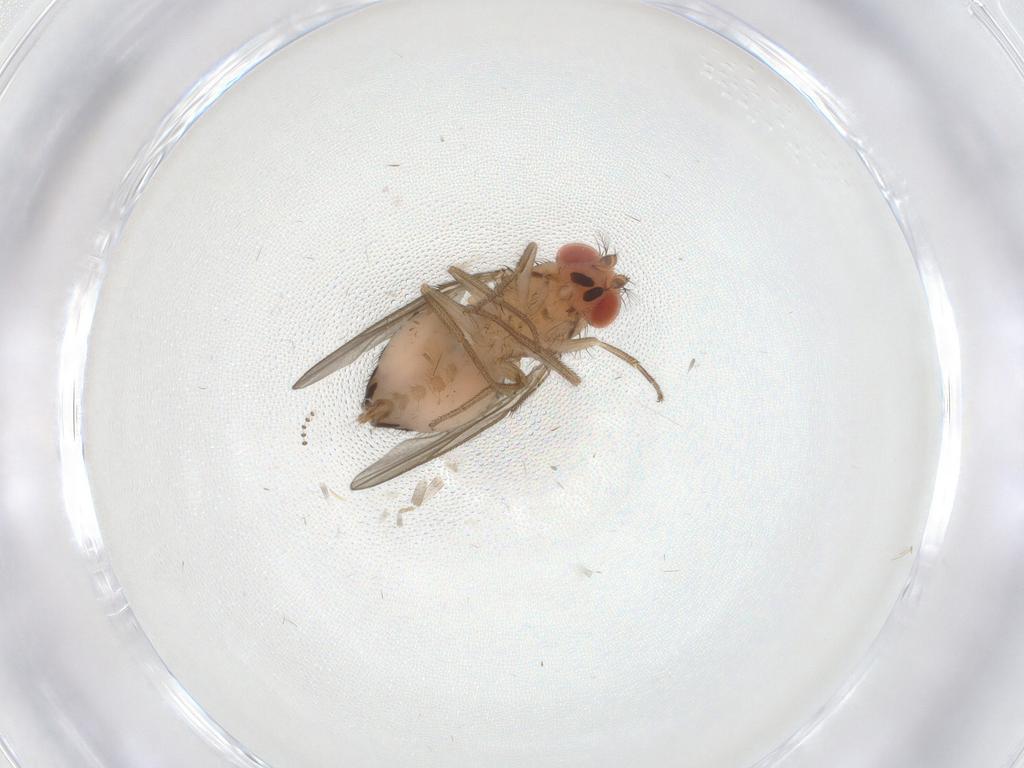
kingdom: Animalia
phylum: Arthropoda
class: Insecta
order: Diptera
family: Drosophilidae
